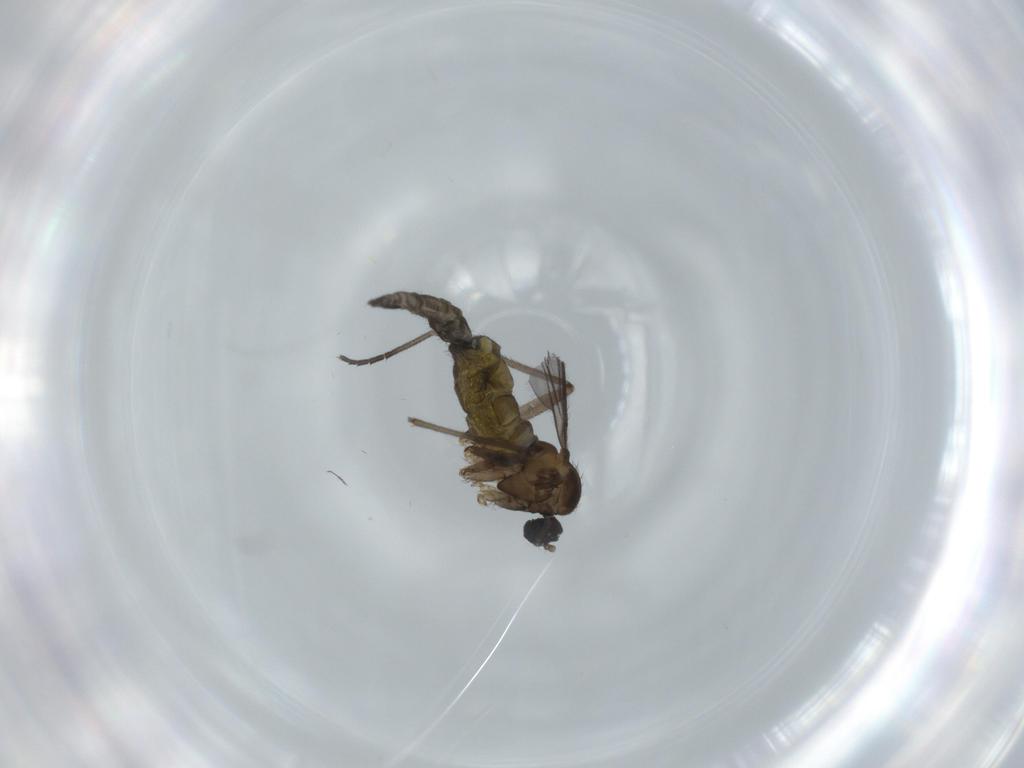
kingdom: Animalia
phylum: Arthropoda
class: Insecta
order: Diptera
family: Sciaridae
